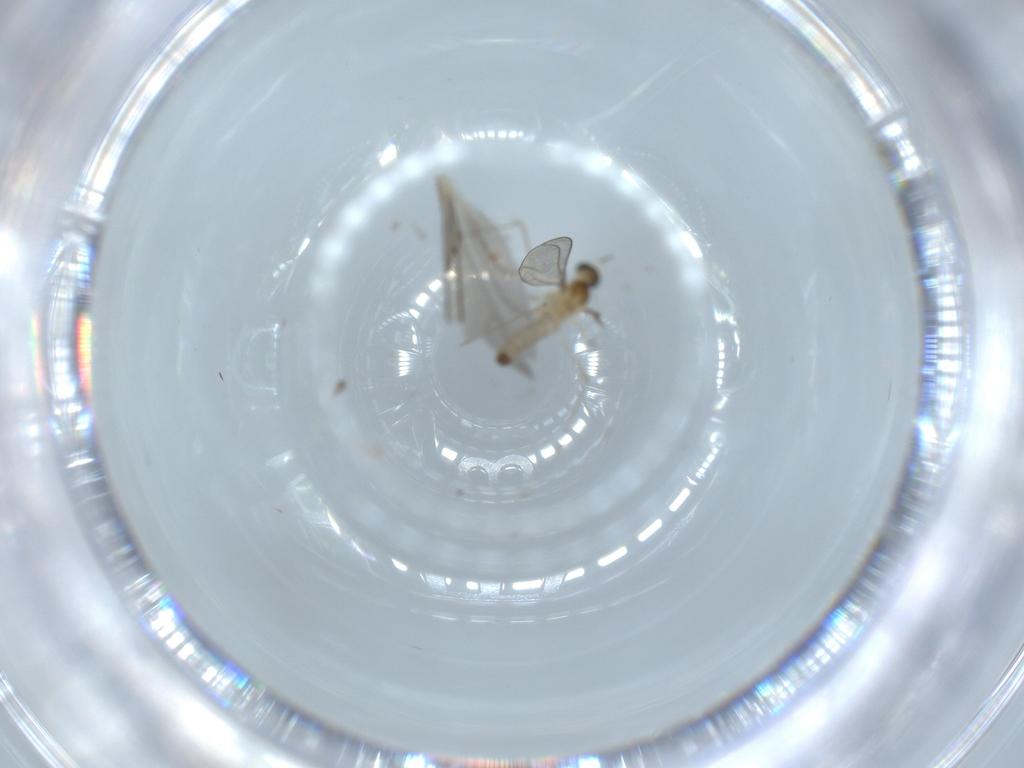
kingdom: Animalia
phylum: Arthropoda
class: Insecta
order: Diptera
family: Cecidomyiidae
